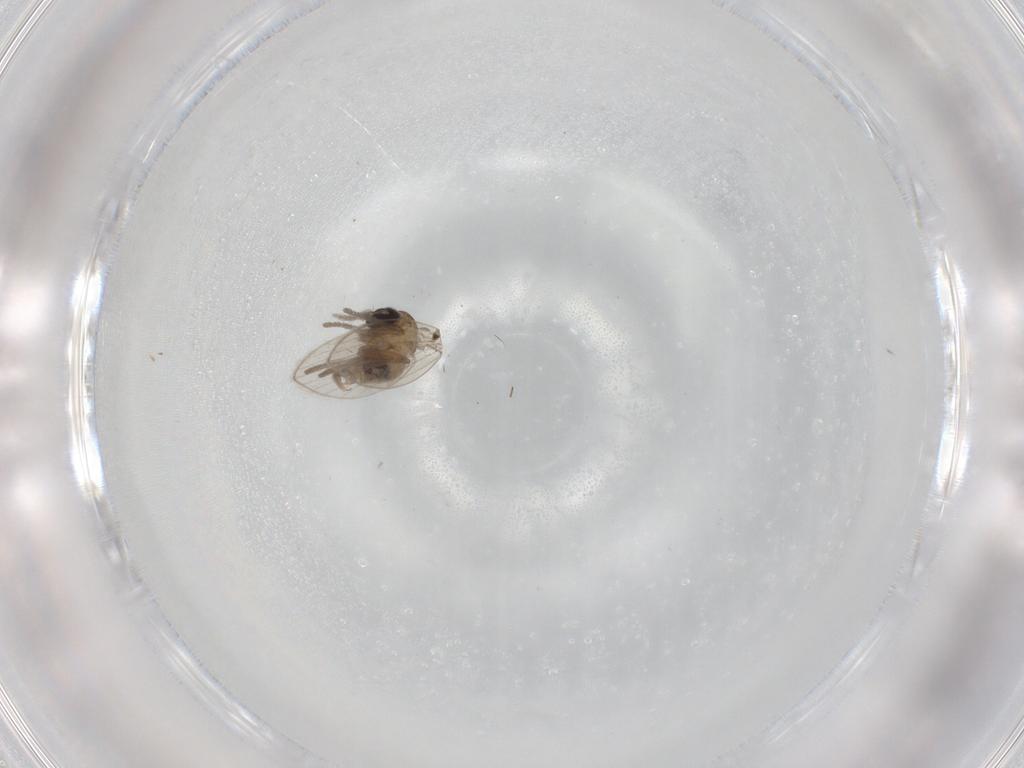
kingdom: Animalia
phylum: Arthropoda
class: Insecta
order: Diptera
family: Psychodidae
